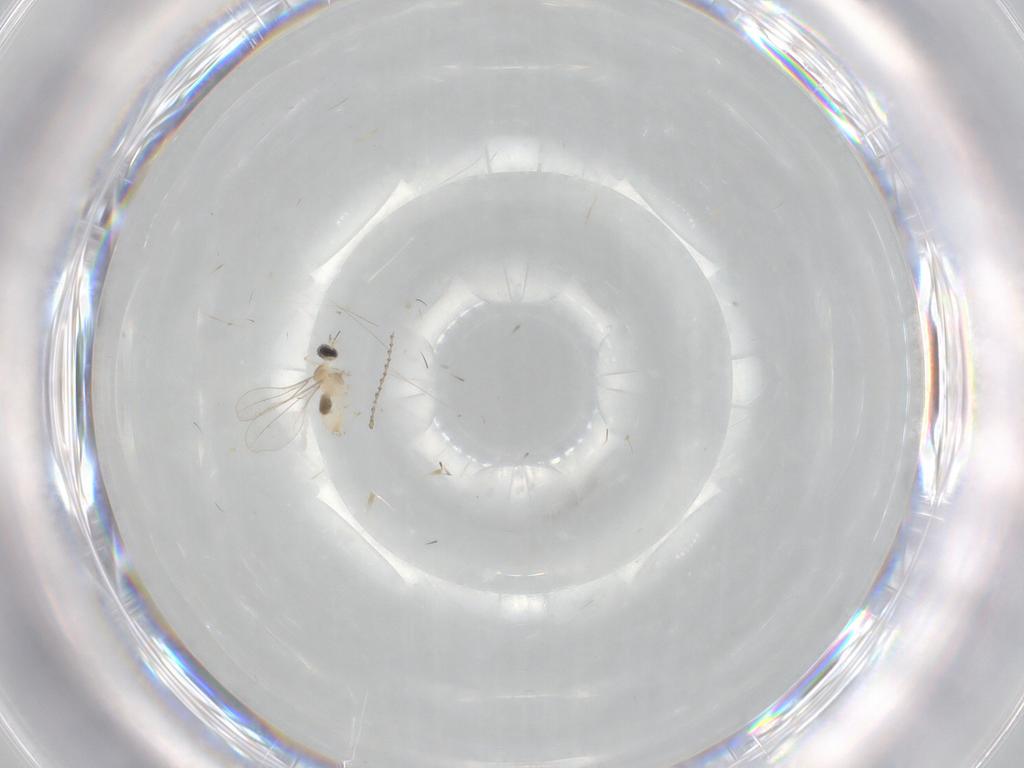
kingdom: Animalia
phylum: Arthropoda
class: Insecta
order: Diptera
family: Cecidomyiidae
